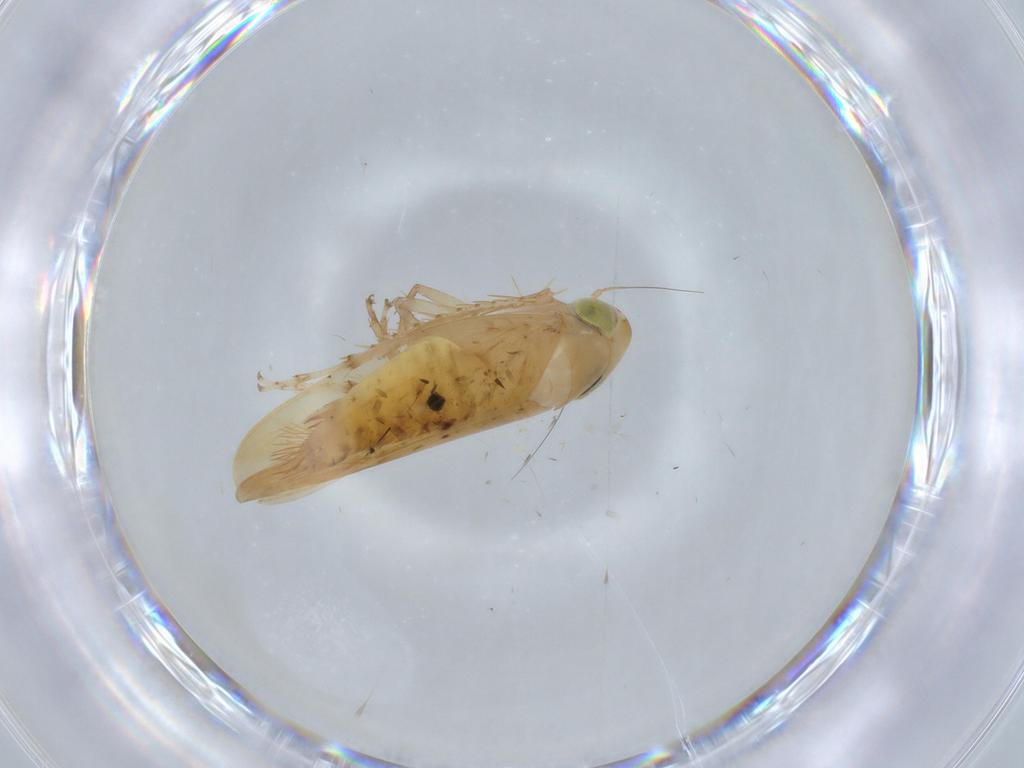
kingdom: Animalia
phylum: Arthropoda
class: Insecta
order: Hemiptera
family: Cicadellidae
